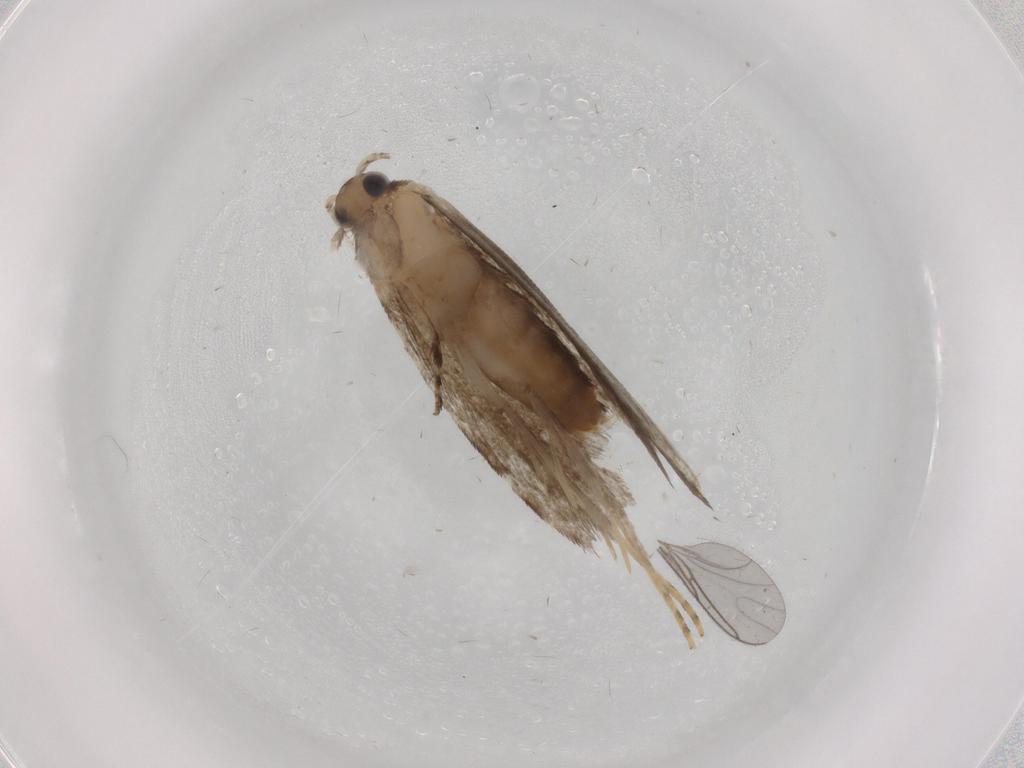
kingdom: Animalia
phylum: Arthropoda
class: Insecta
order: Lepidoptera
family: Tineidae
